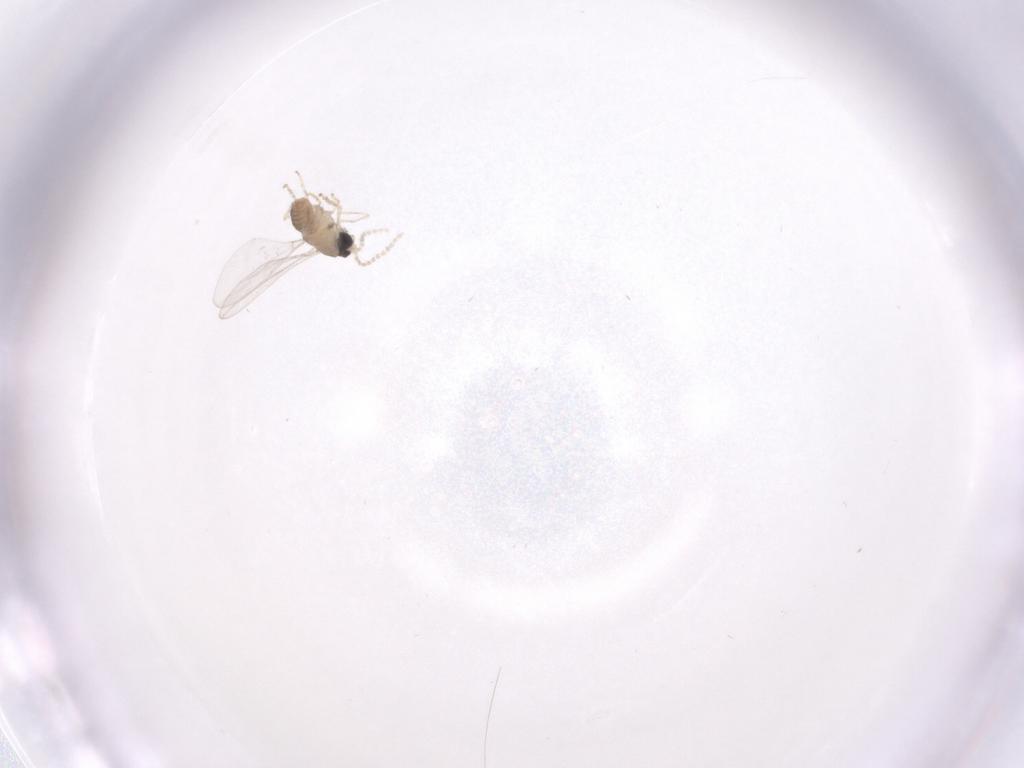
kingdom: Animalia
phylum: Arthropoda
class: Insecta
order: Diptera
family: Cecidomyiidae
